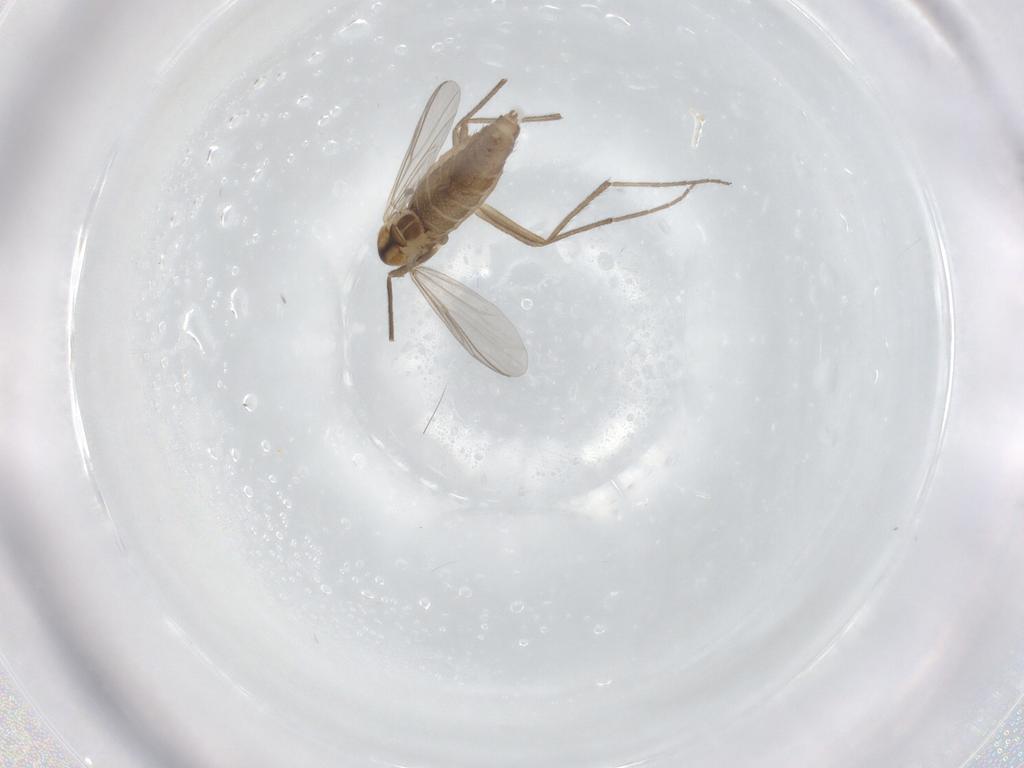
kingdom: Animalia
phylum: Arthropoda
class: Insecta
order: Diptera
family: Chironomidae
